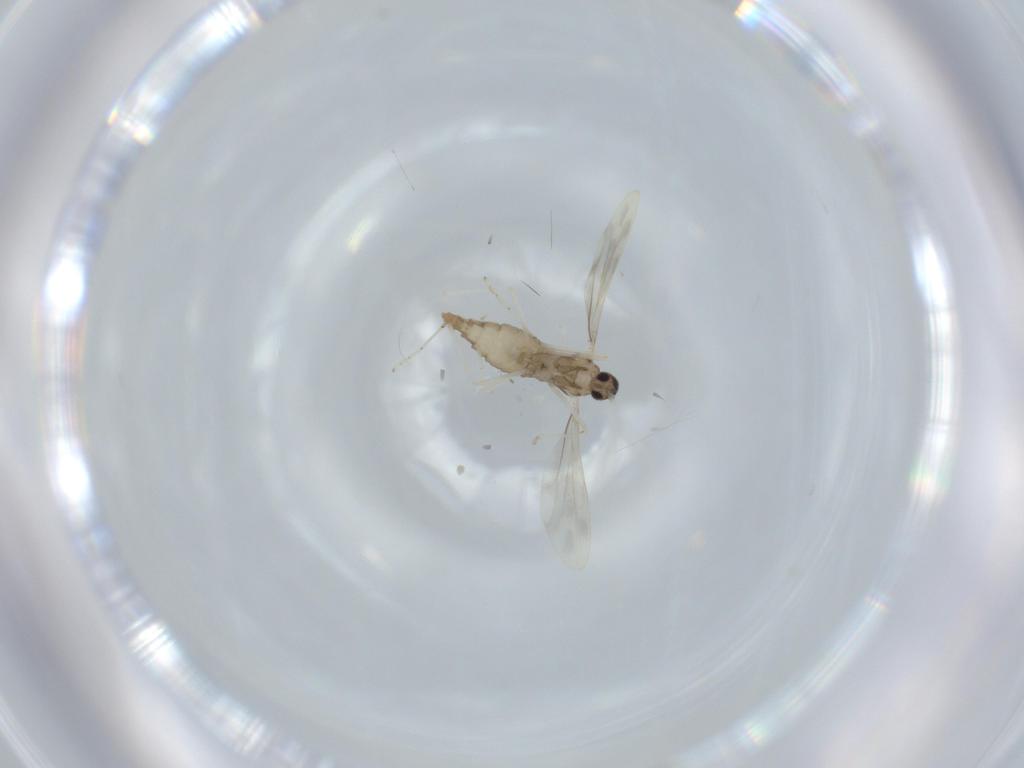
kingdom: Animalia
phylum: Arthropoda
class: Insecta
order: Diptera
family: Cecidomyiidae
